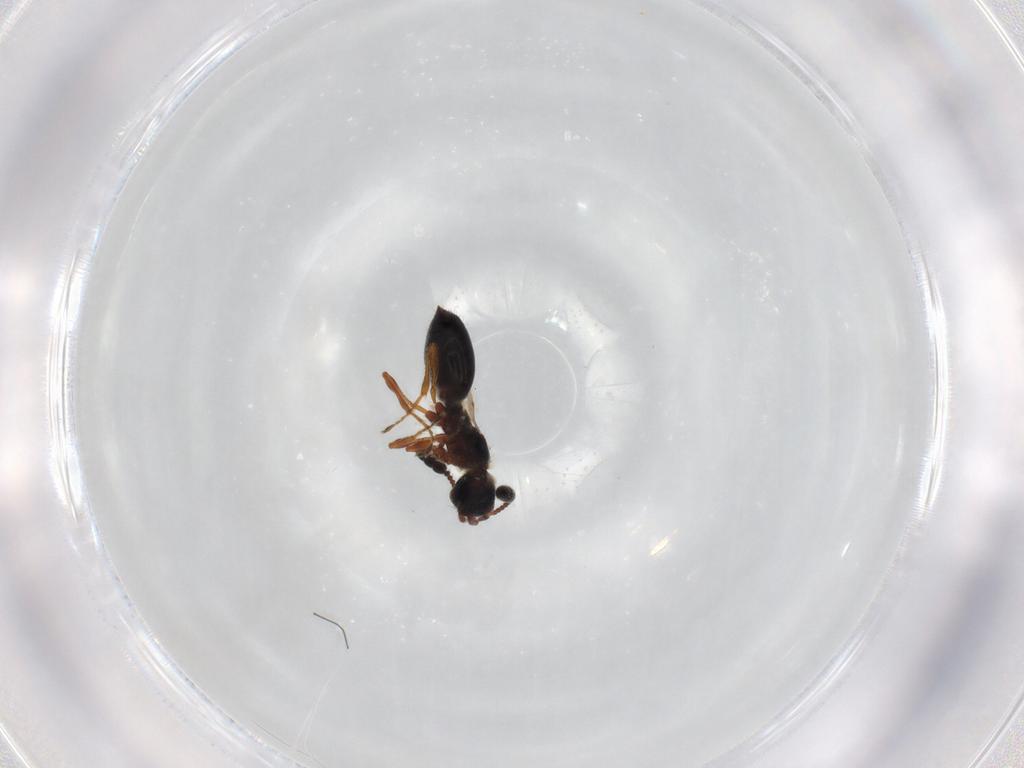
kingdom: Animalia
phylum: Arthropoda
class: Insecta
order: Hymenoptera
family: Diapriidae
